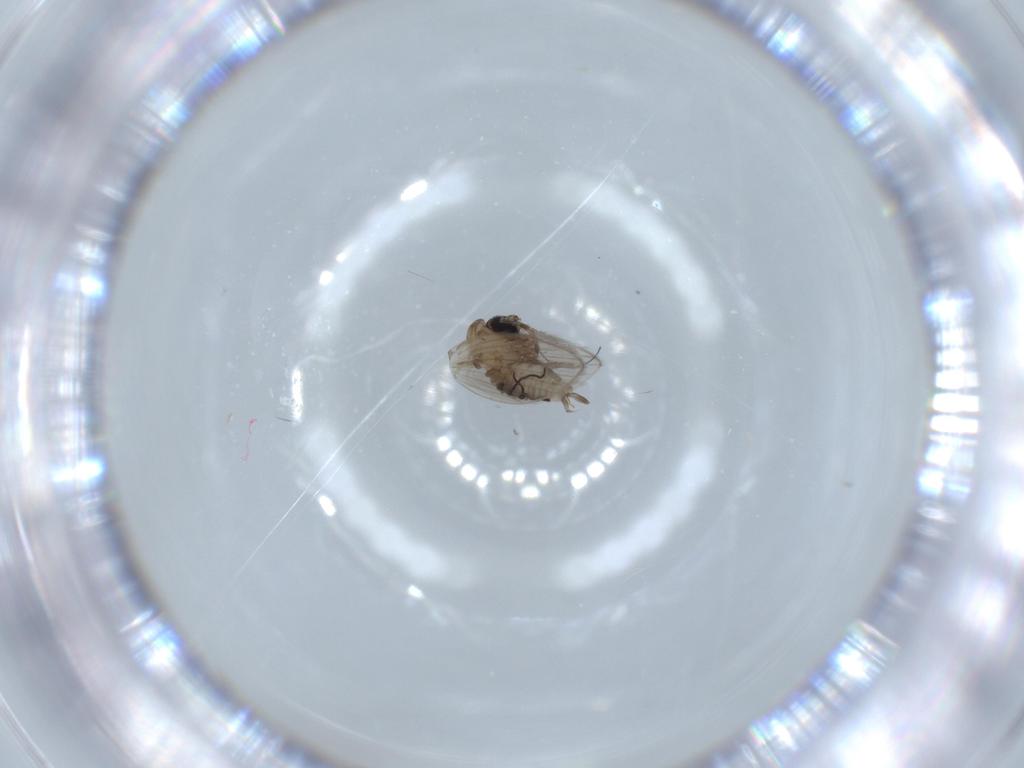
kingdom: Animalia
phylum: Arthropoda
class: Insecta
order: Diptera
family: Psychodidae
